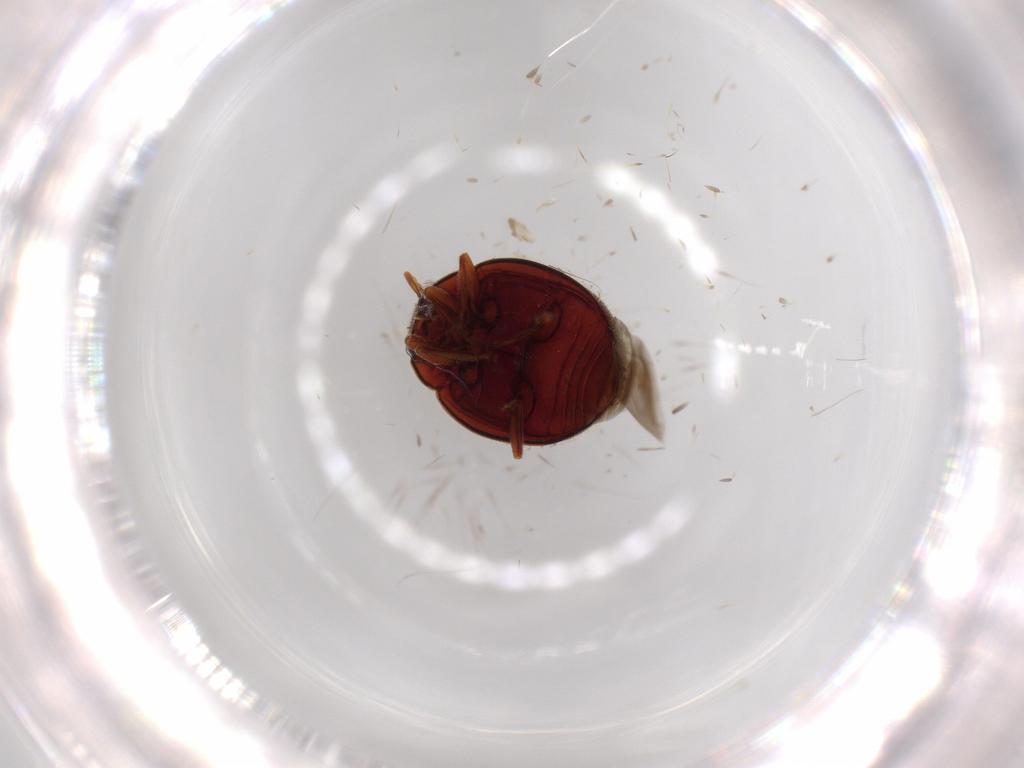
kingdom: Animalia
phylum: Arthropoda
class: Insecta
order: Coleoptera
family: Coccinellidae
